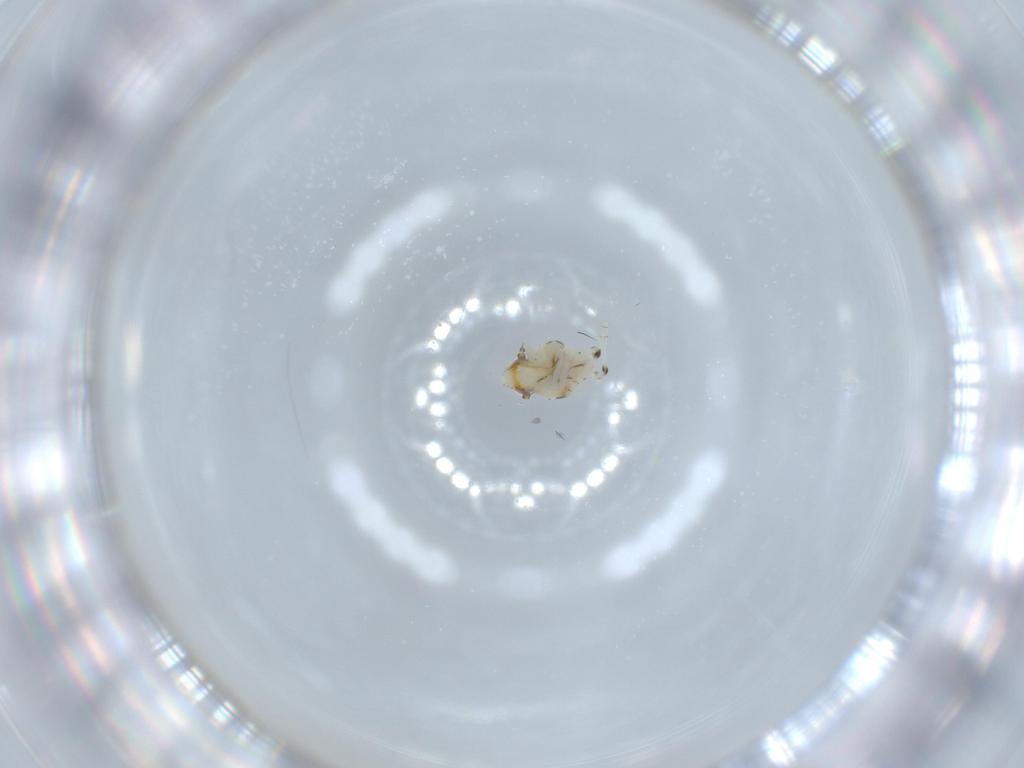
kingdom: Animalia
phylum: Arthropoda
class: Insecta
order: Hemiptera
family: Issidae
